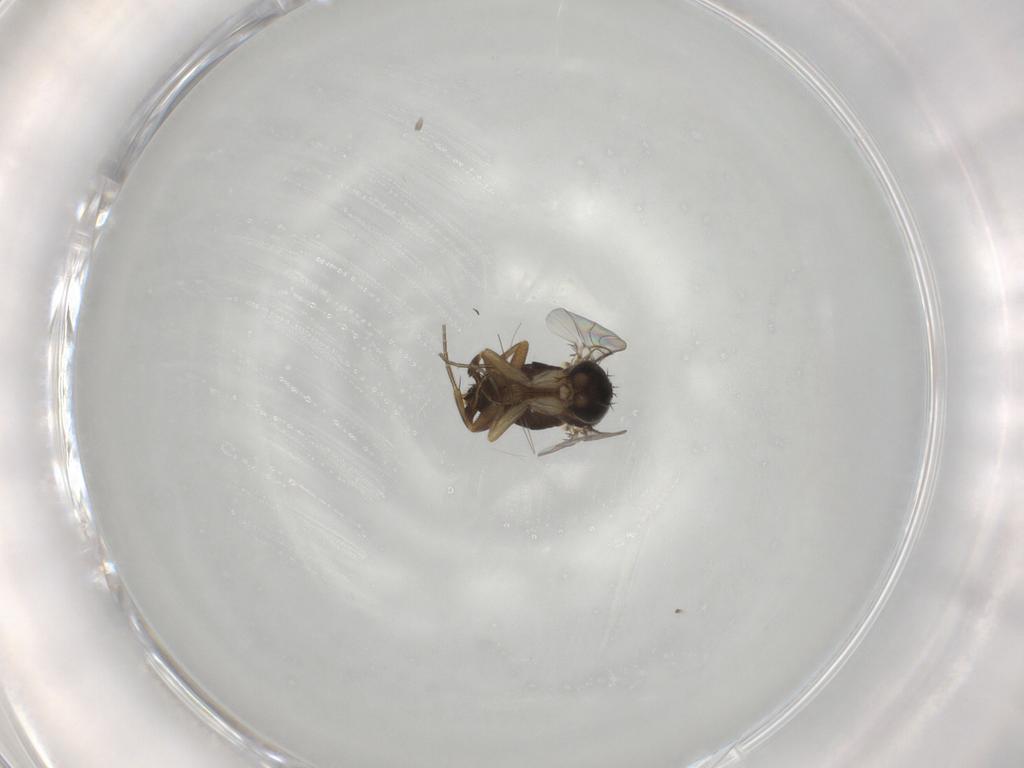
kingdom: Animalia
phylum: Arthropoda
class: Insecta
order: Diptera
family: Phoridae
